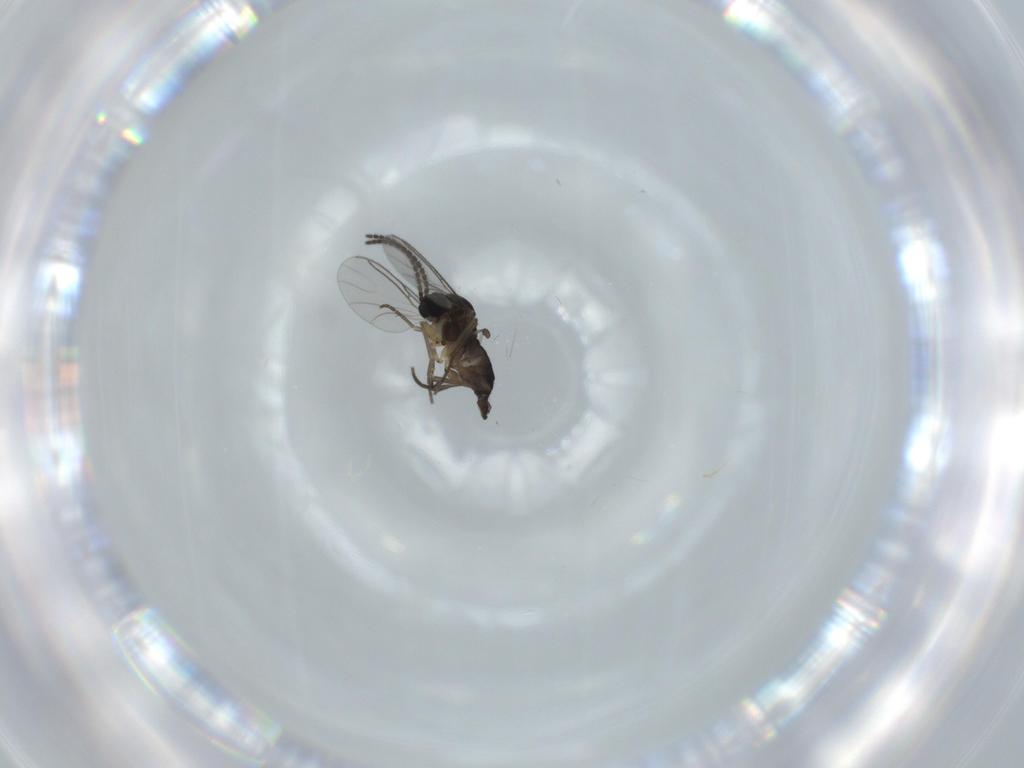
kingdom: Animalia
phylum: Arthropoda
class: Insecta
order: Diptera
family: Sciaridae
